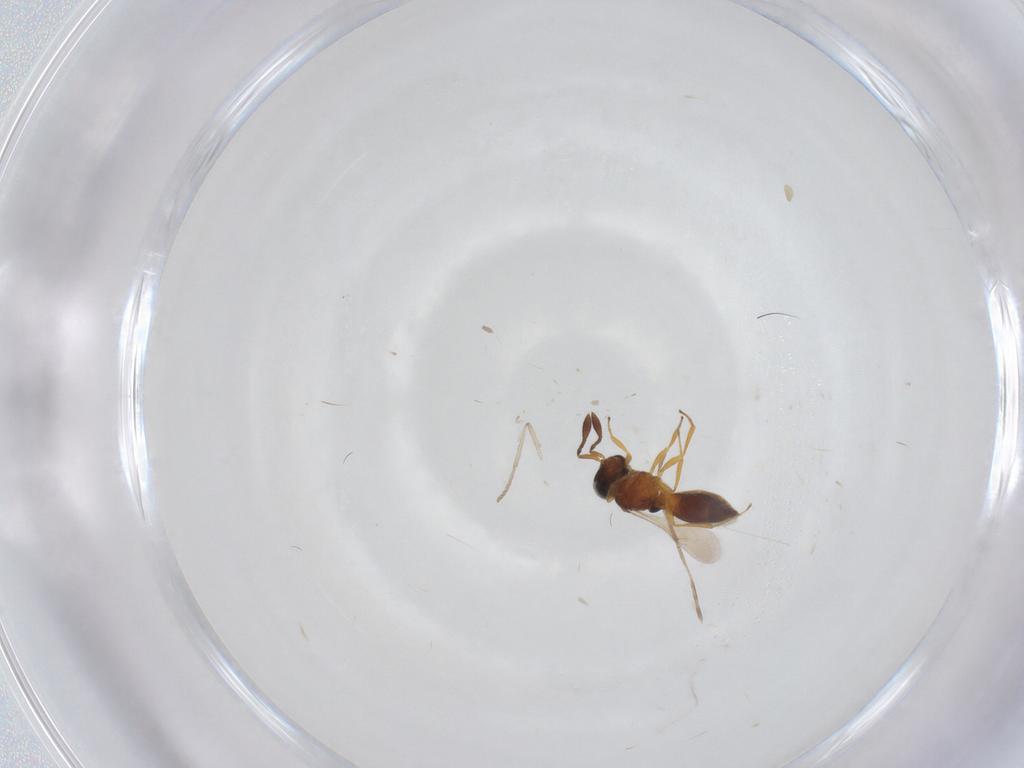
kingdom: Animalia
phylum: Arthropoda
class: Insecta
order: Hymenoptera
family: Scelionidae
